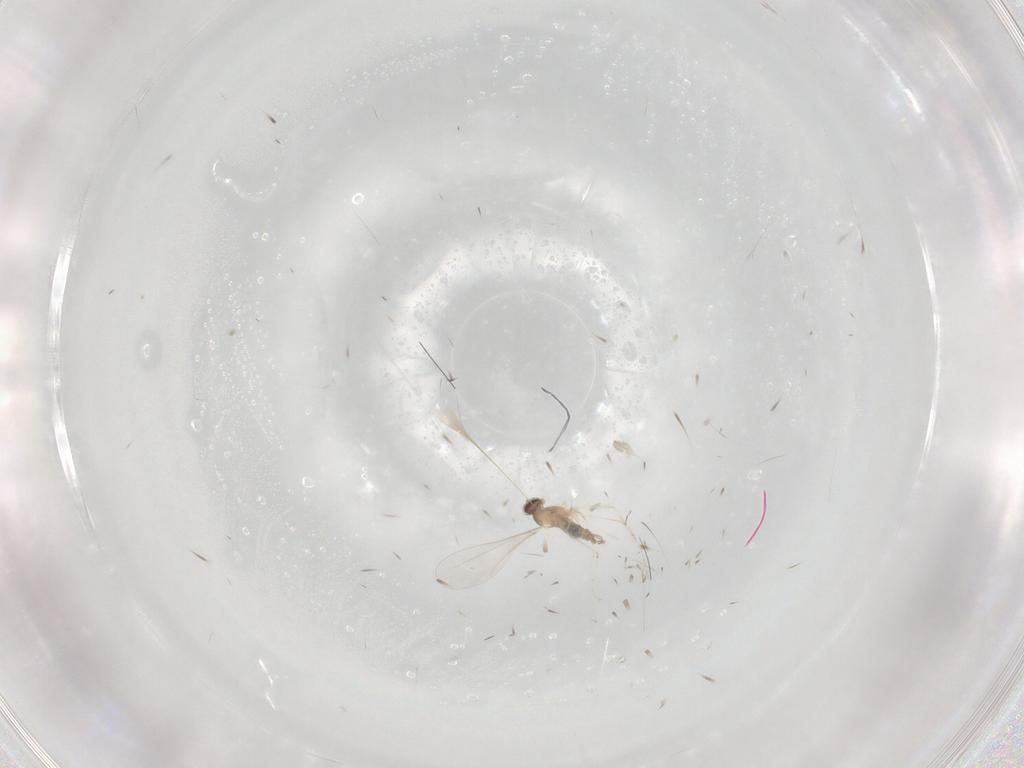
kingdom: Animalia
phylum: Arthropoda
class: Insecta
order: Diptera
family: Cecidomyiidae
